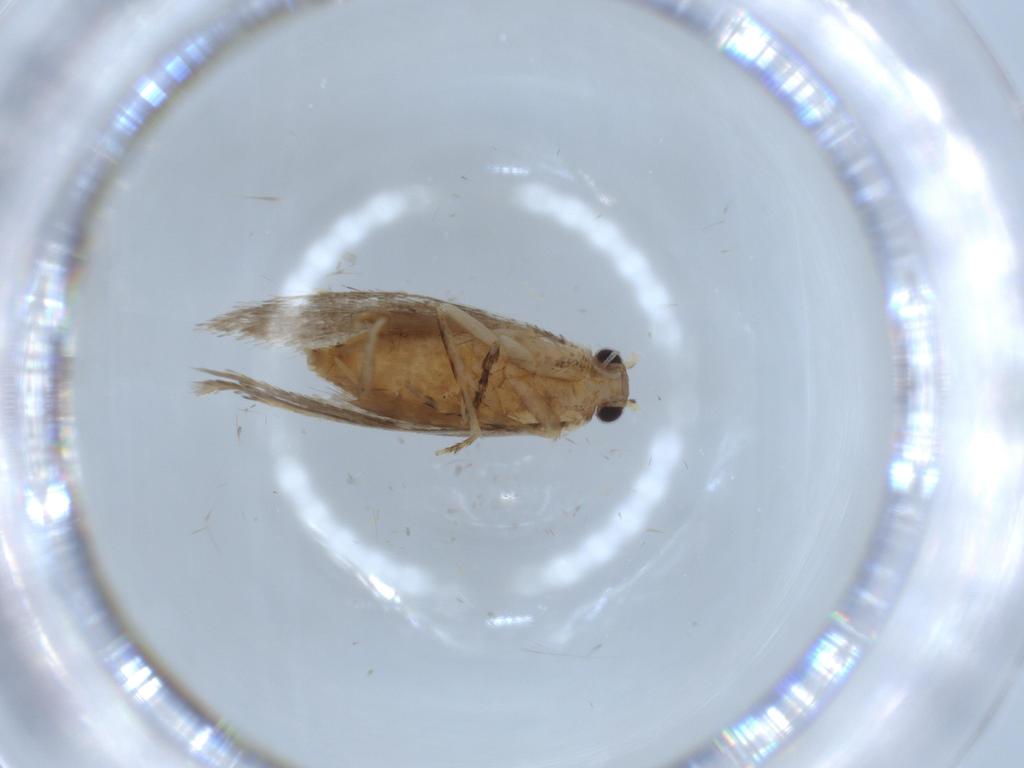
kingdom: Animalia
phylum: Arthropoda
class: Insecta
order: Lepidoptera
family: Tineidae
